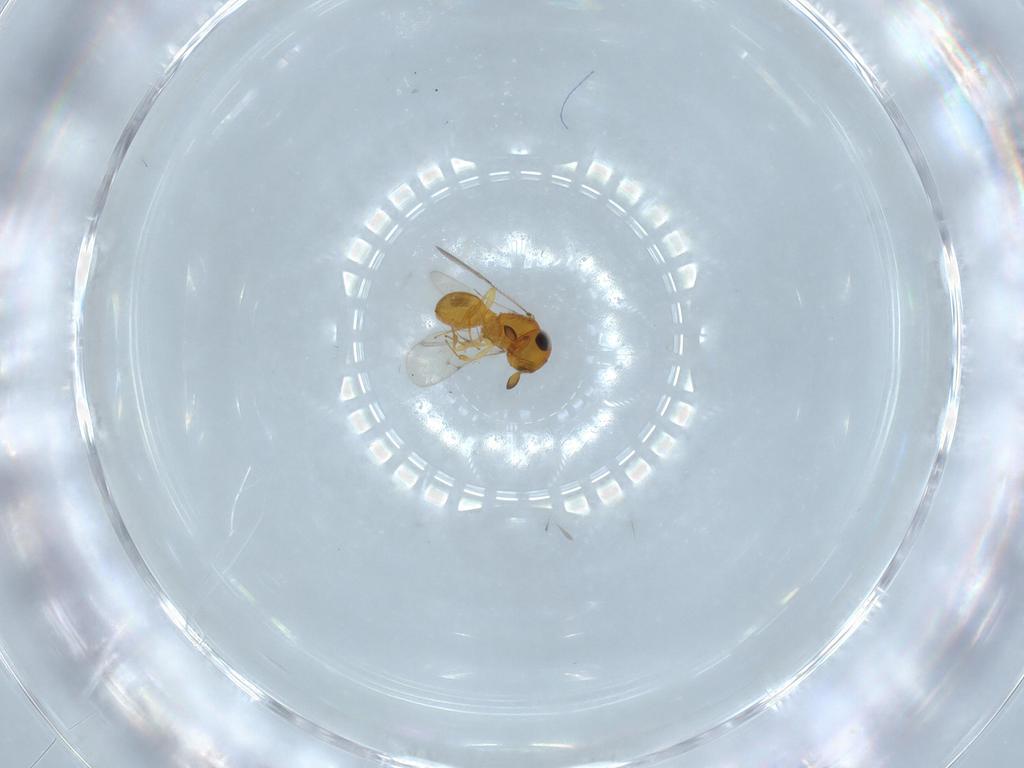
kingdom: Animalia
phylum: Arthropoda
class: Insecta
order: Hymenoptera
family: Scelionidae
